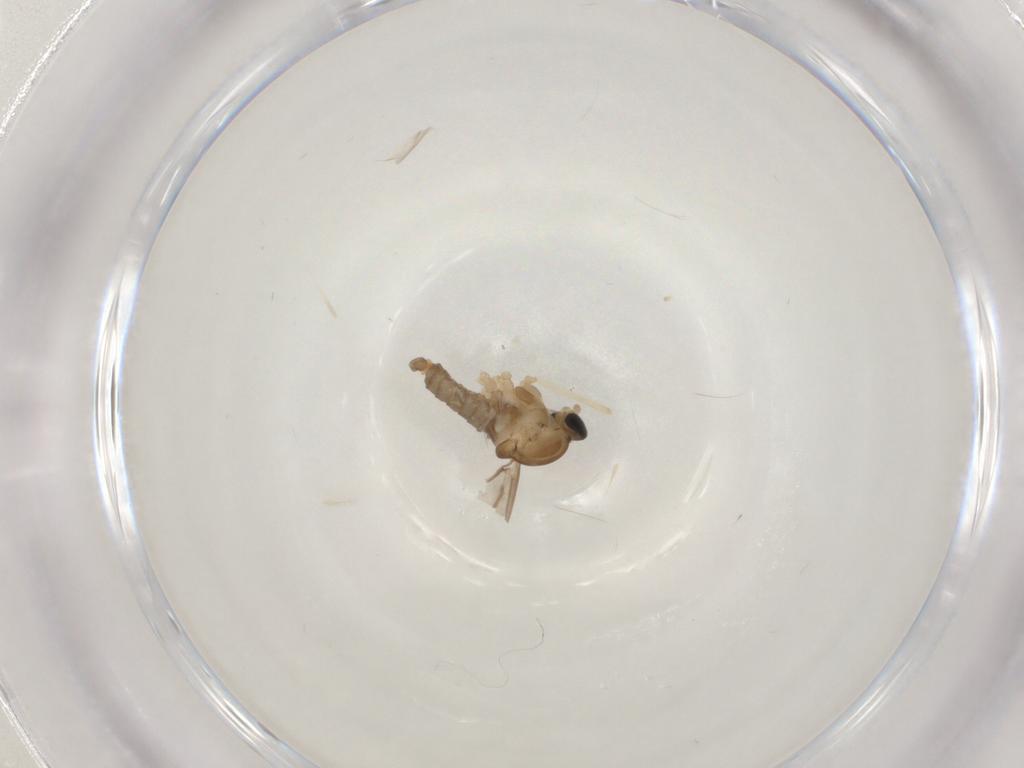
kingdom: Animalia
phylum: Arthropoda
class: Insecta
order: Diptera
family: Cecidomyiidae
